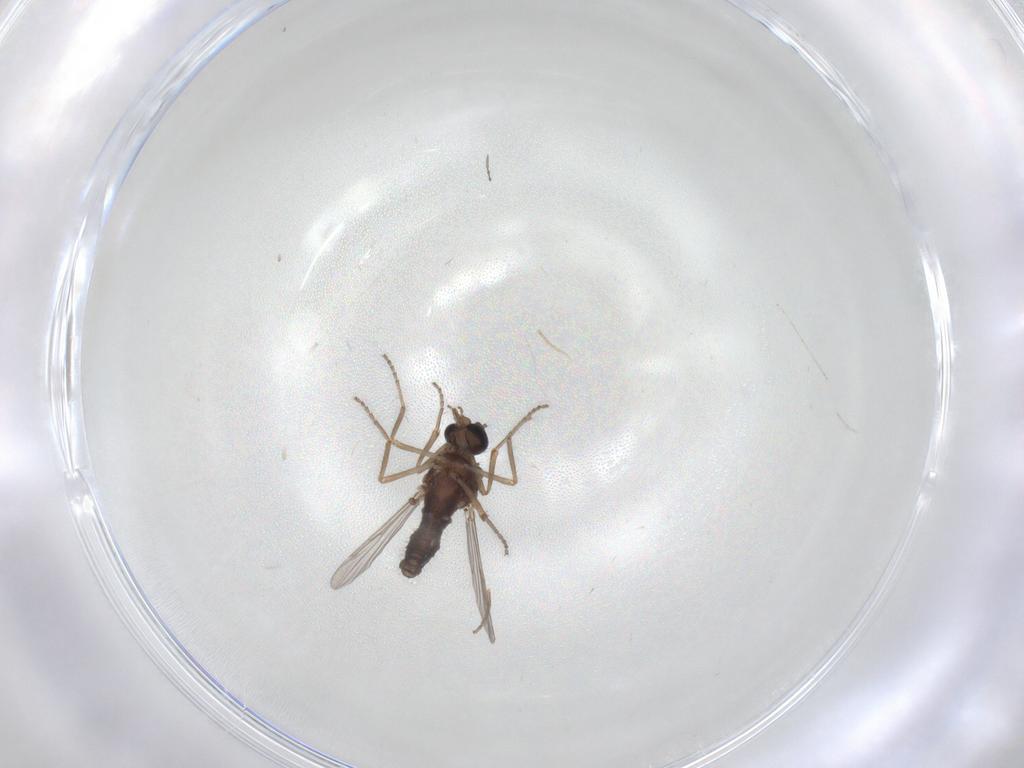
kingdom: Animalia
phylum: Arthropoda
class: Insecta
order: Diptera
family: Ceratopogonidae
